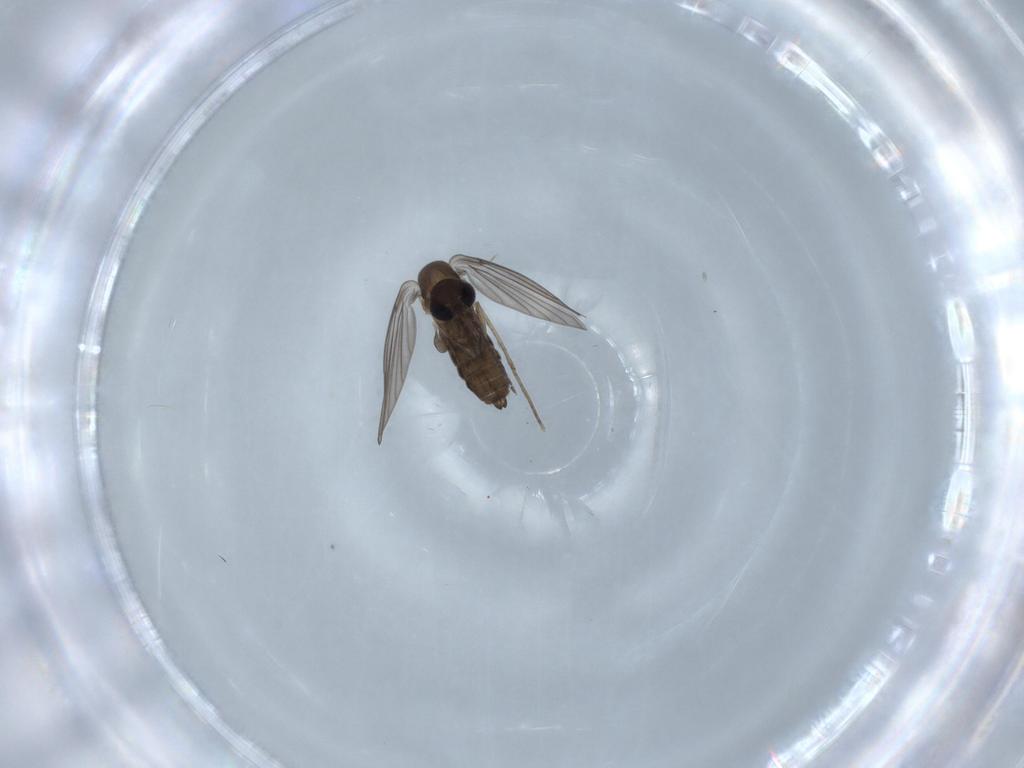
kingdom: Animalia
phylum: Arthropoda
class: Insecta
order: Diptera
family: Psychodidae
